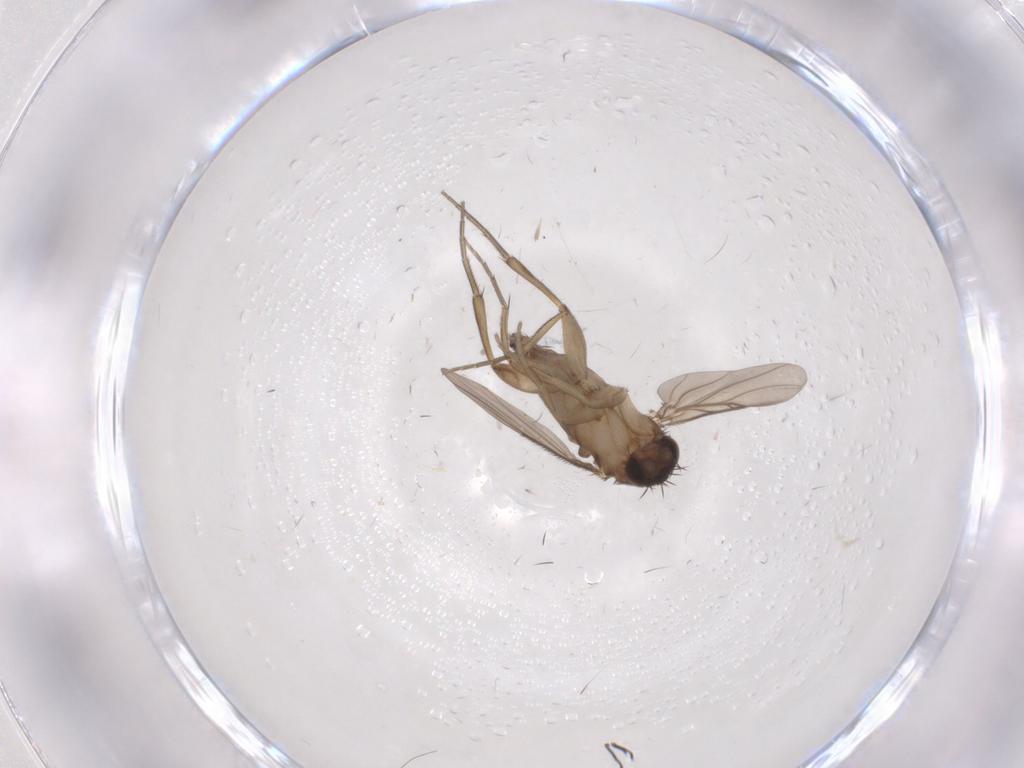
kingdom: Animalia
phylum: Arthropoda
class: Insecta
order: Diptera
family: Phoridae
